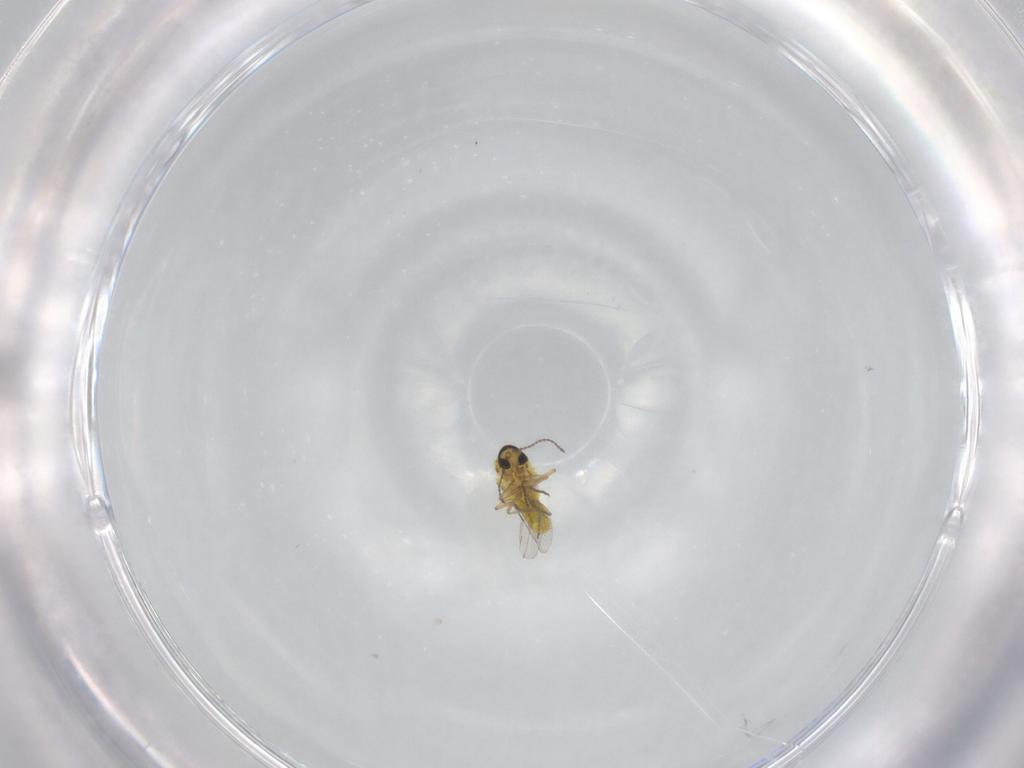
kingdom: Animalia
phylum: Arthropoda
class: Insecta
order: Diptera
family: Ceratopogonidae
